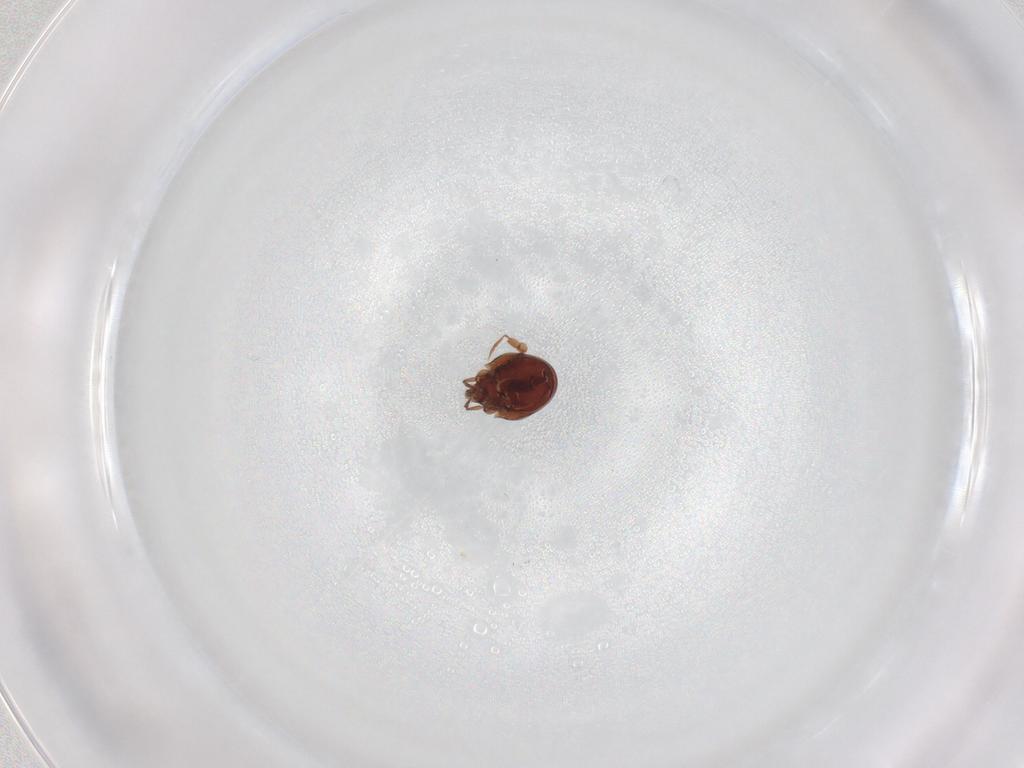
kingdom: Animalia
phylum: Arthropoda
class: Arachnida
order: Sarcoptiformes
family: Ceratozetidae
